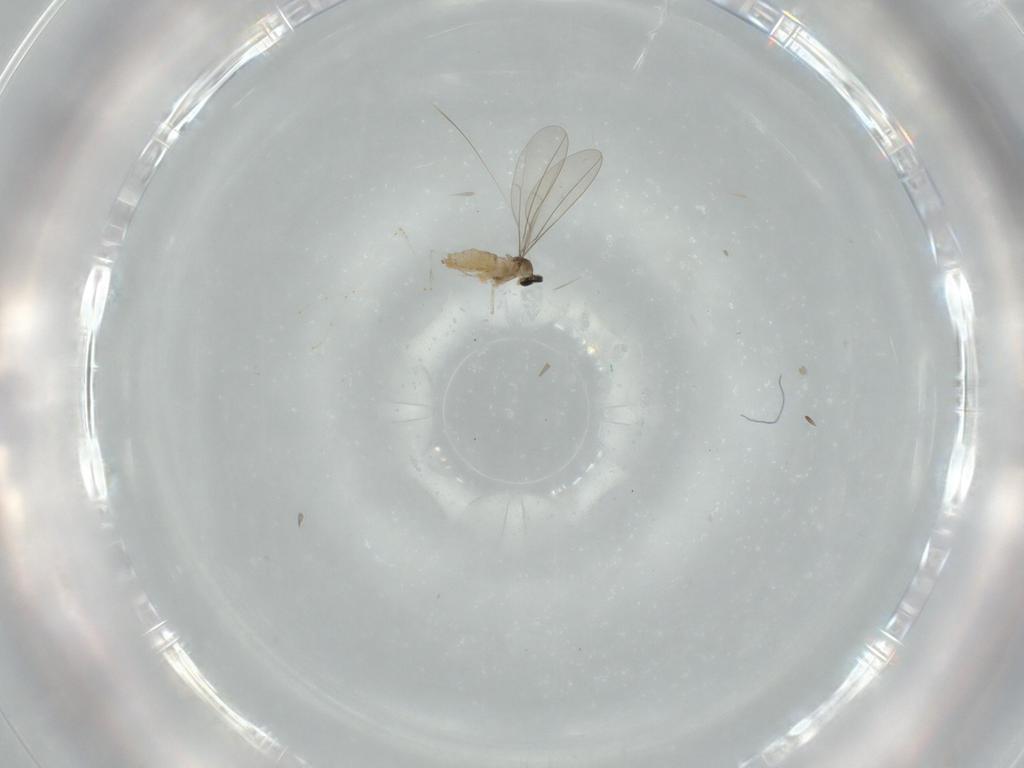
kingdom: Animalia
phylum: Arthropoda
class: Insecta
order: Diptera
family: Cecidomyiidae
